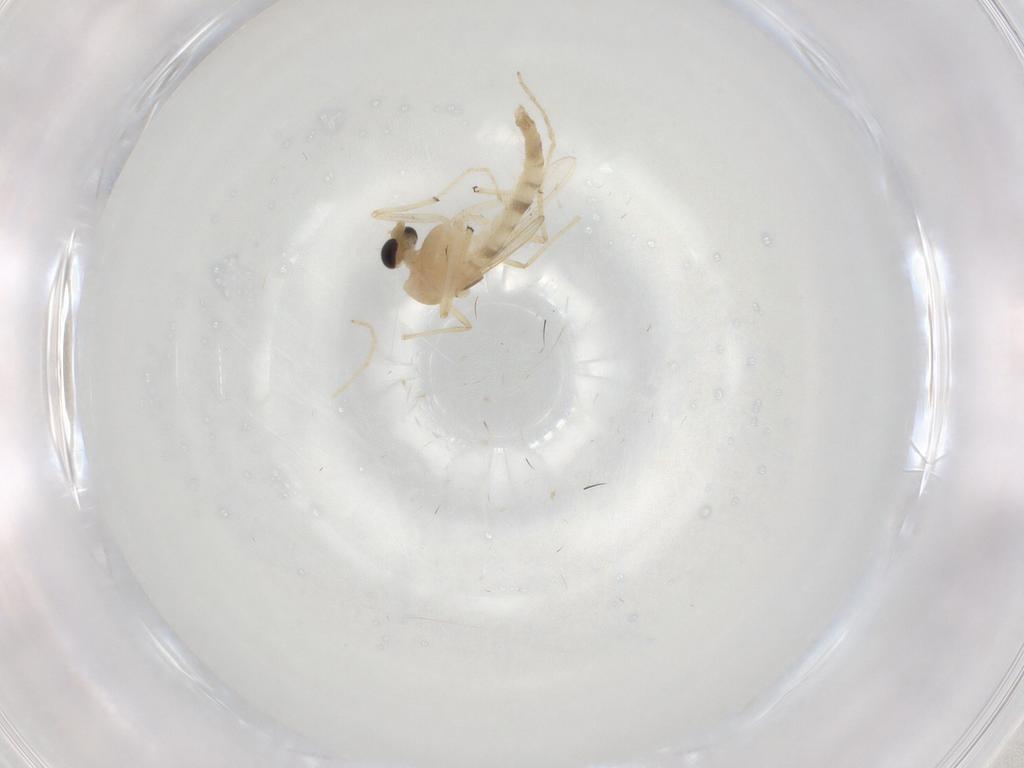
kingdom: Animalia
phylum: Arthropoda
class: Insecta
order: Diptera
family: Chironomidae
